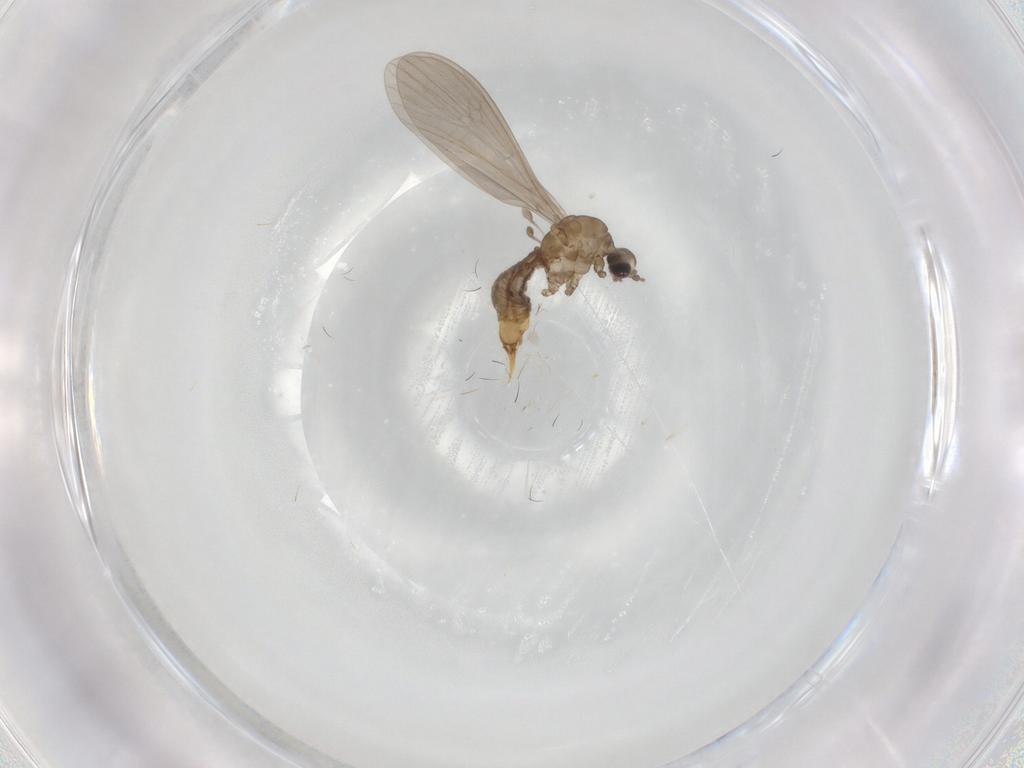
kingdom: Animalia
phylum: Arthropoda
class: Insecta
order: Diptera
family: Limoniidae
